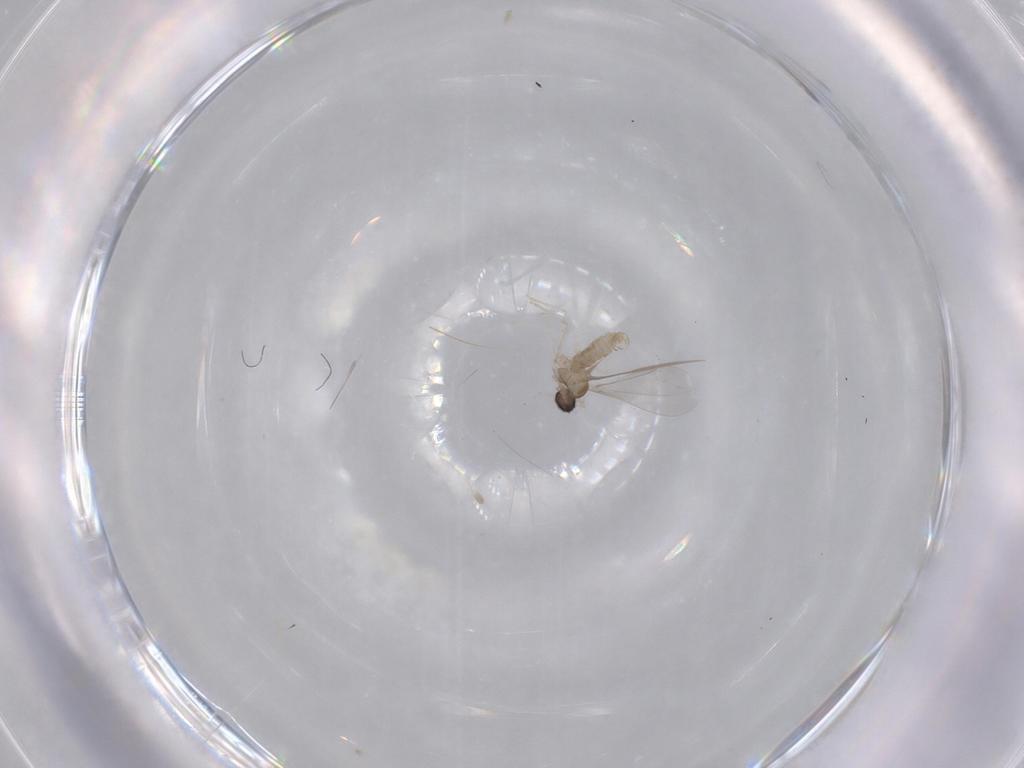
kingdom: Animalia
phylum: Arthropoda
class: Insecta
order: Diptera
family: Cecidomyiidae
